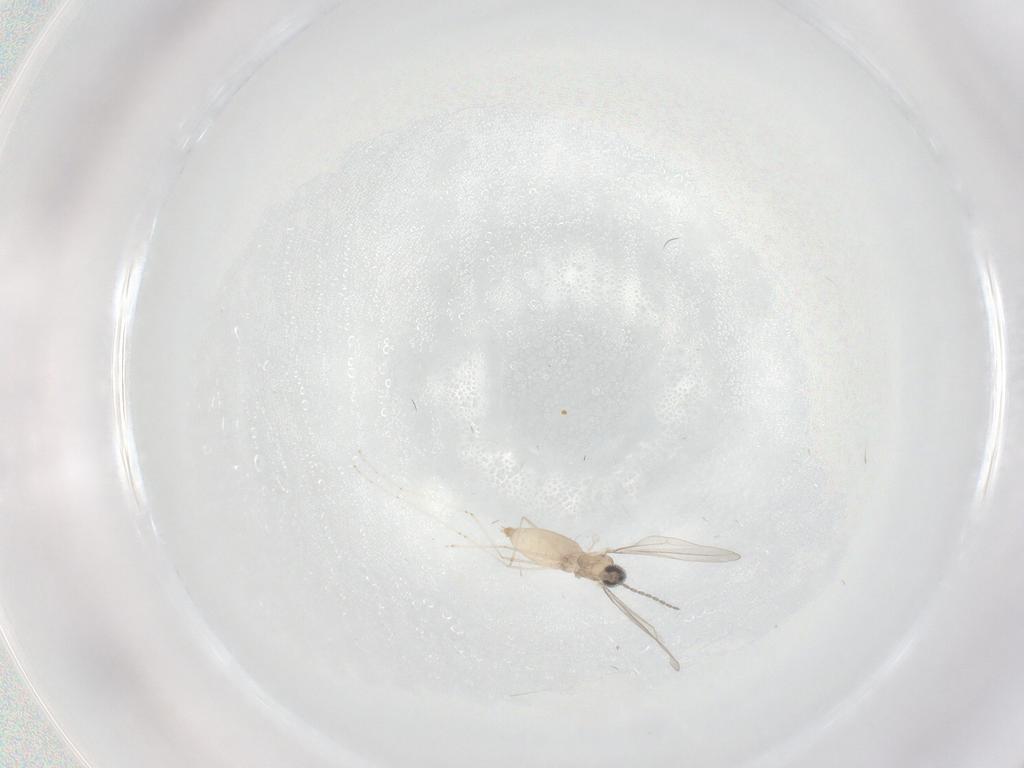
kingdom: Animalia
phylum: Arthropoda
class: Insecta
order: Diptera
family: Cecidomyiidae
